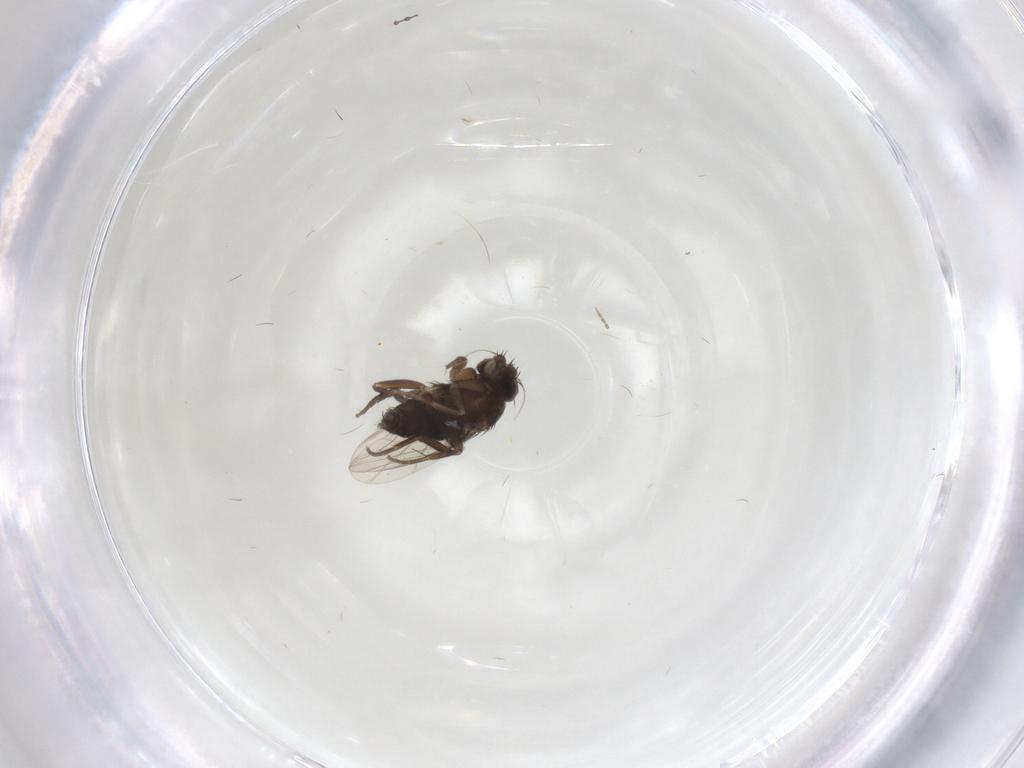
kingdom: Animalia
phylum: Arthropoda
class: Insecta
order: Diptera
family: Phoridae
